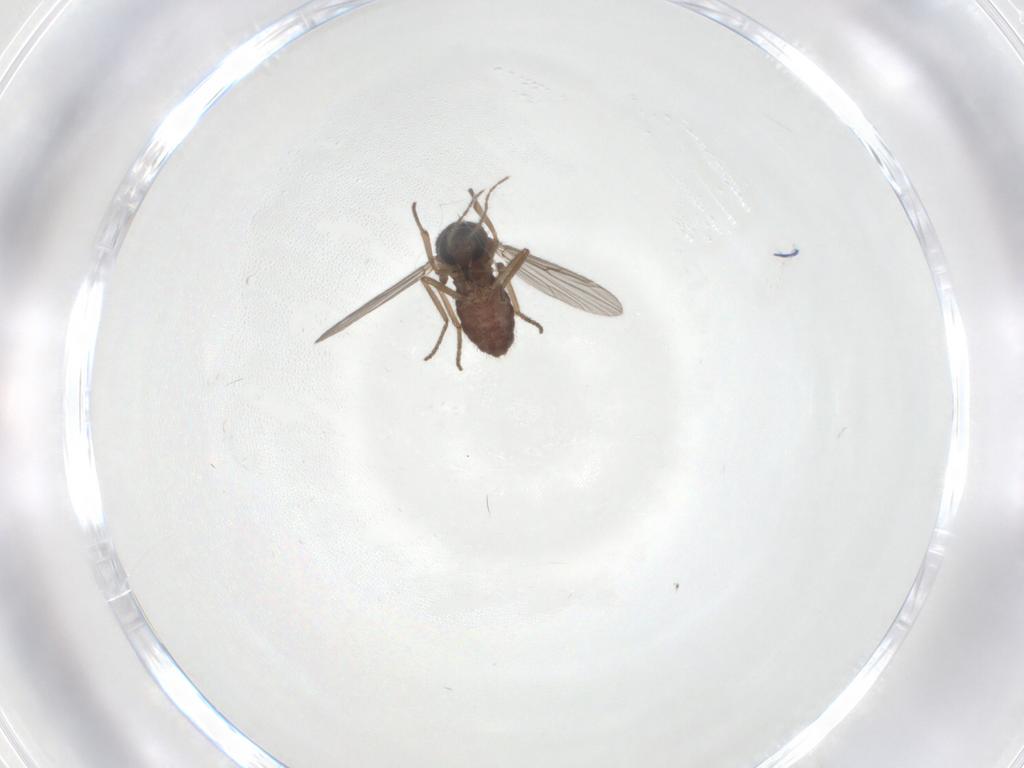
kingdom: Animalia
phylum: Arthropoda
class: Insecta
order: Diptera
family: Ceratopogonidae
